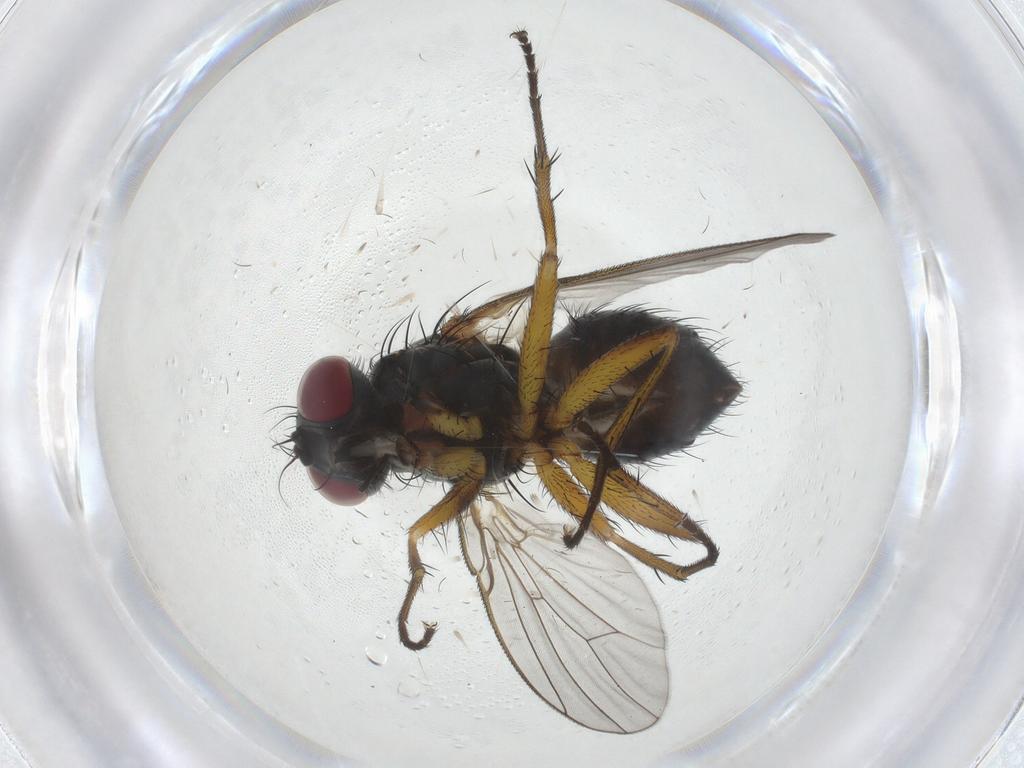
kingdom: Animalia
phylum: Arthropoda
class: Insecta
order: Diptera
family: Muscidae
